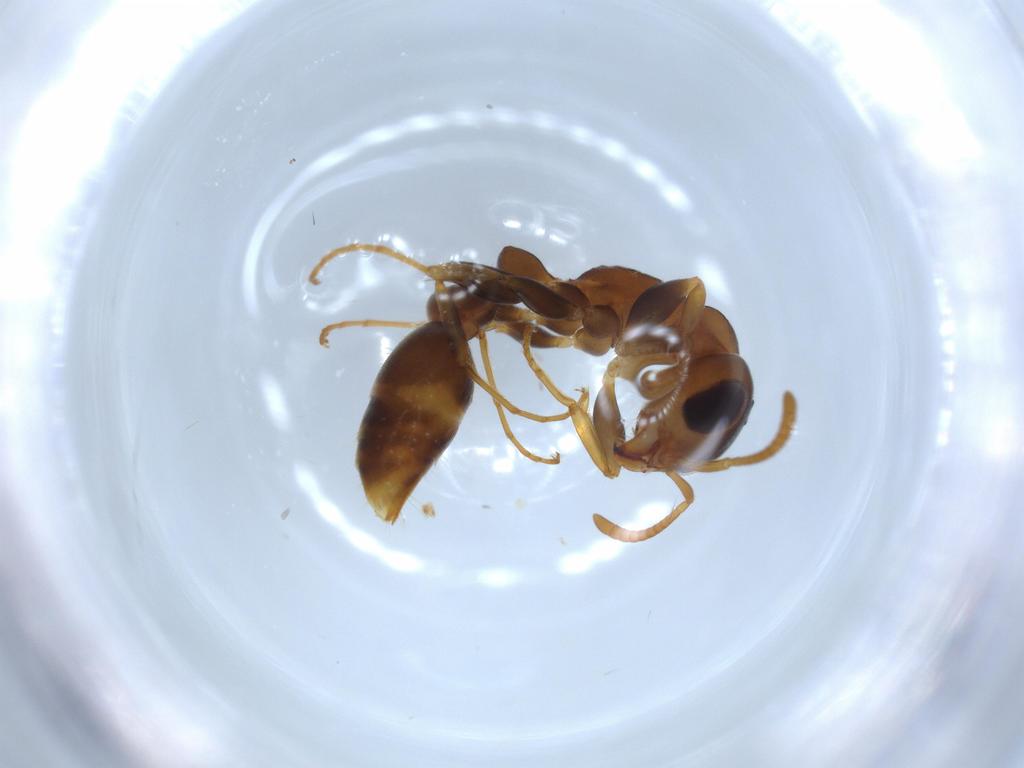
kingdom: Animalia
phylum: Arthropoda
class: Insecta
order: Hymenoptera
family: Formicidae
